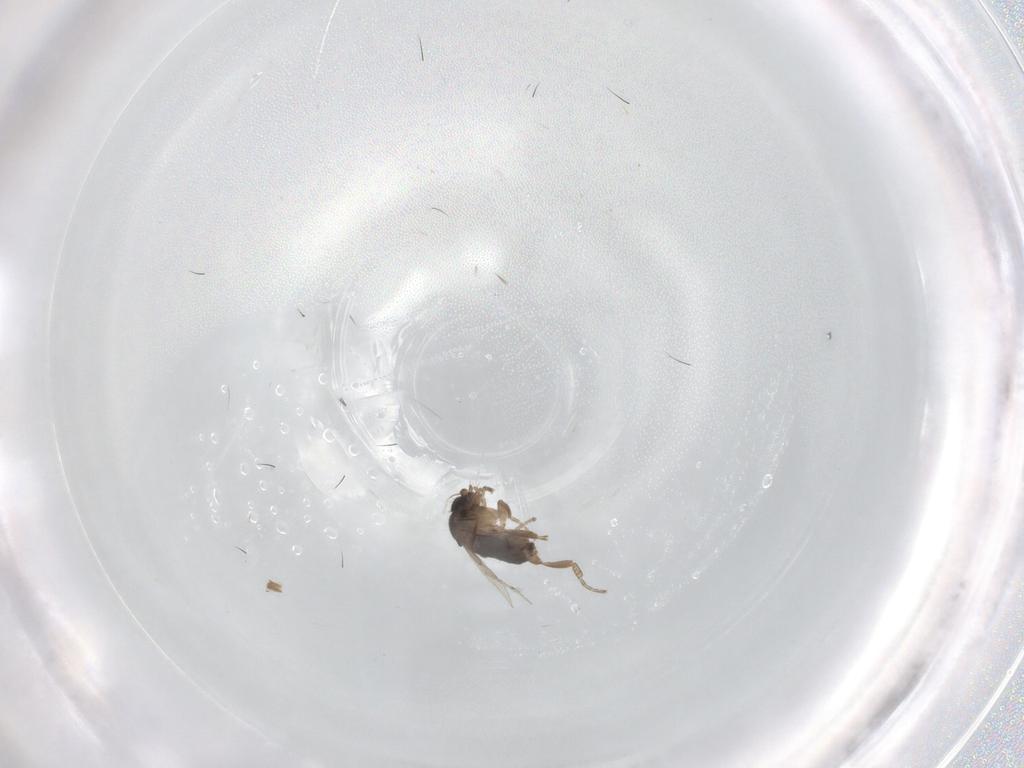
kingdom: Animalia
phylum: Arthropoda
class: Insecta
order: Diptera
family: Phoridae
